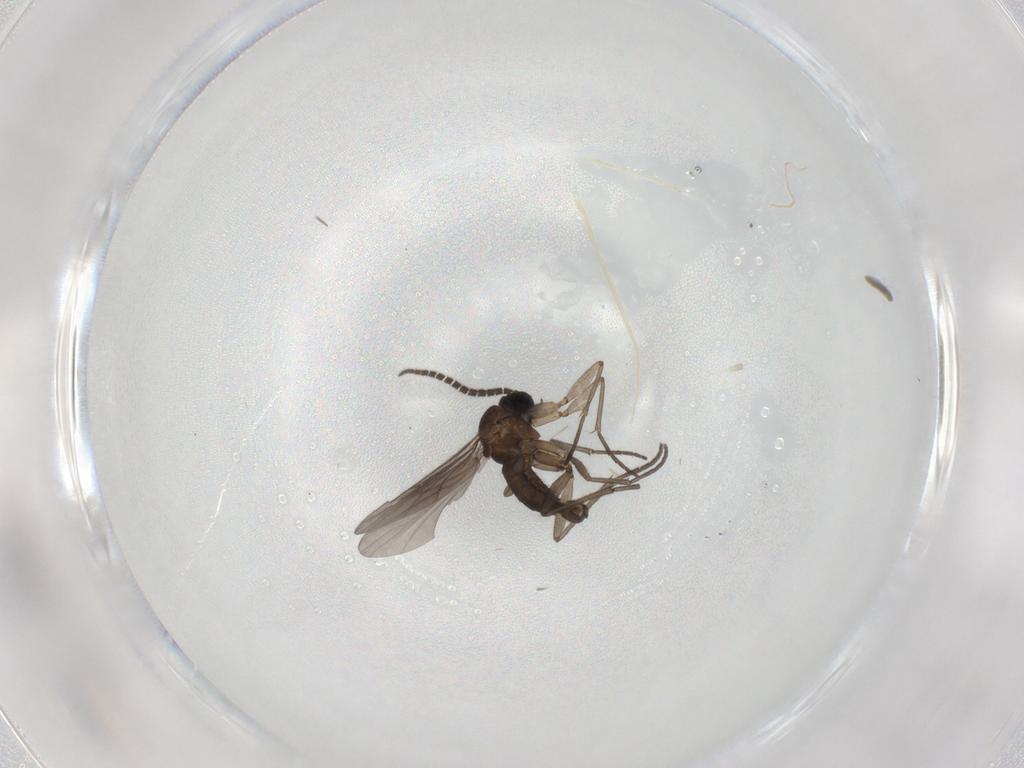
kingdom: Animalia
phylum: Arthropoda
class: Insecta
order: Diptera
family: Sciaridae
